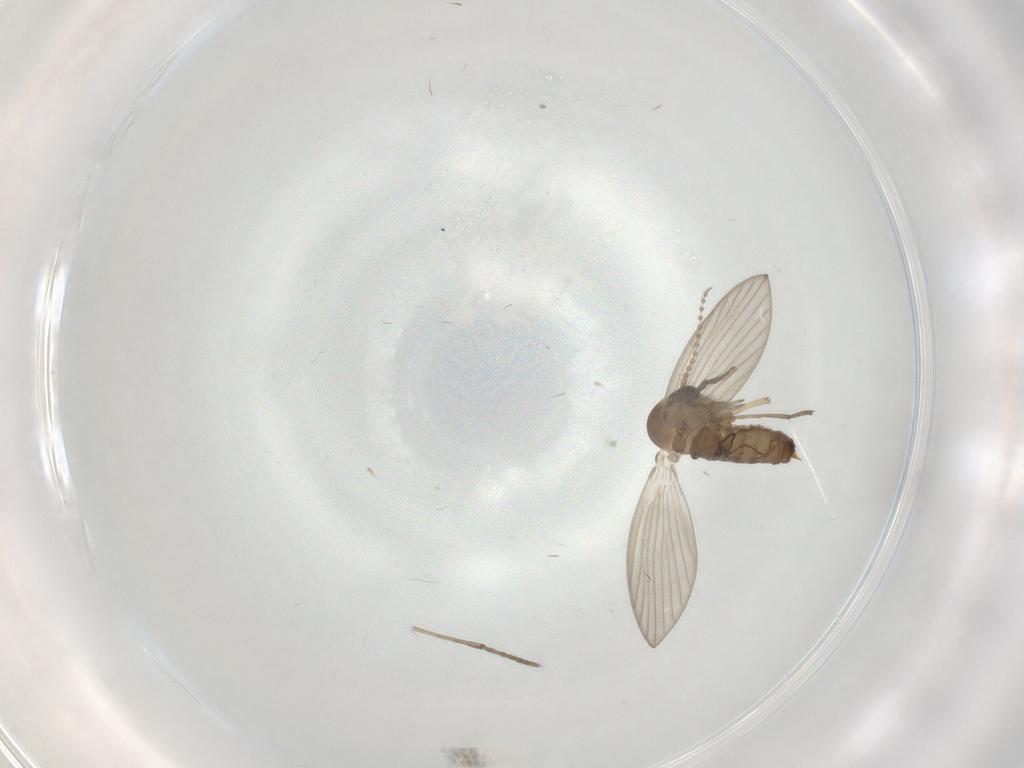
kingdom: Animalia
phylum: Arthropoda
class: Insecta
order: Diptera
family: Psychodidae
